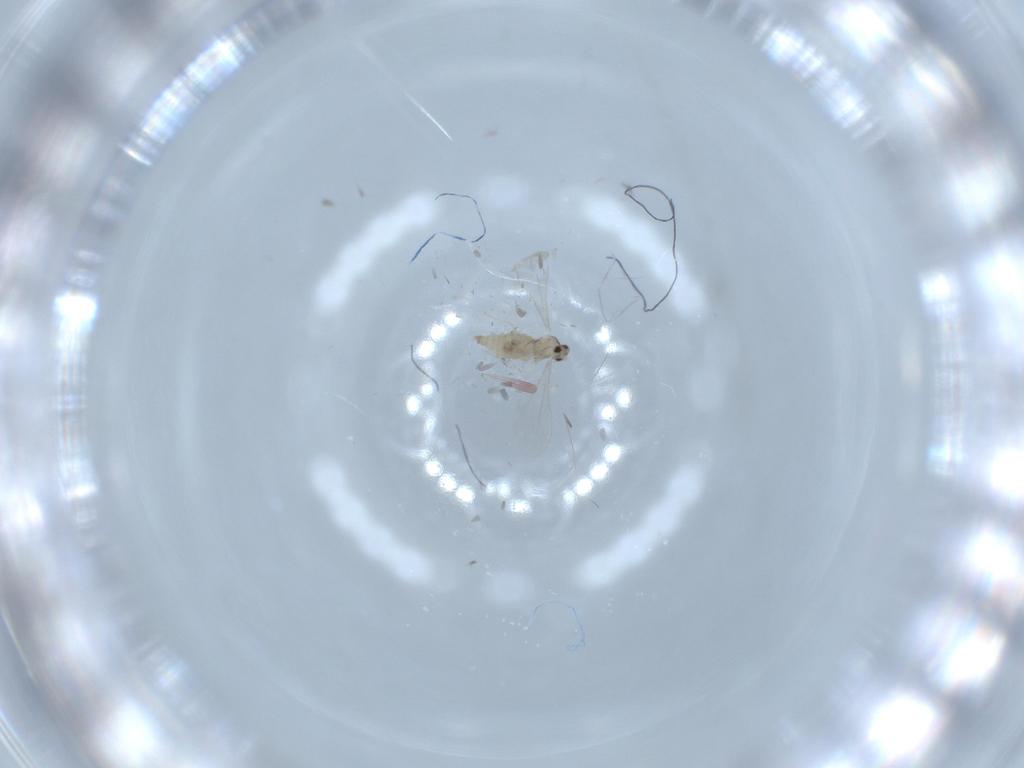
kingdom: Animalia
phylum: Arthropoda
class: Insecta
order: Diptera
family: Cecidomyiidae
